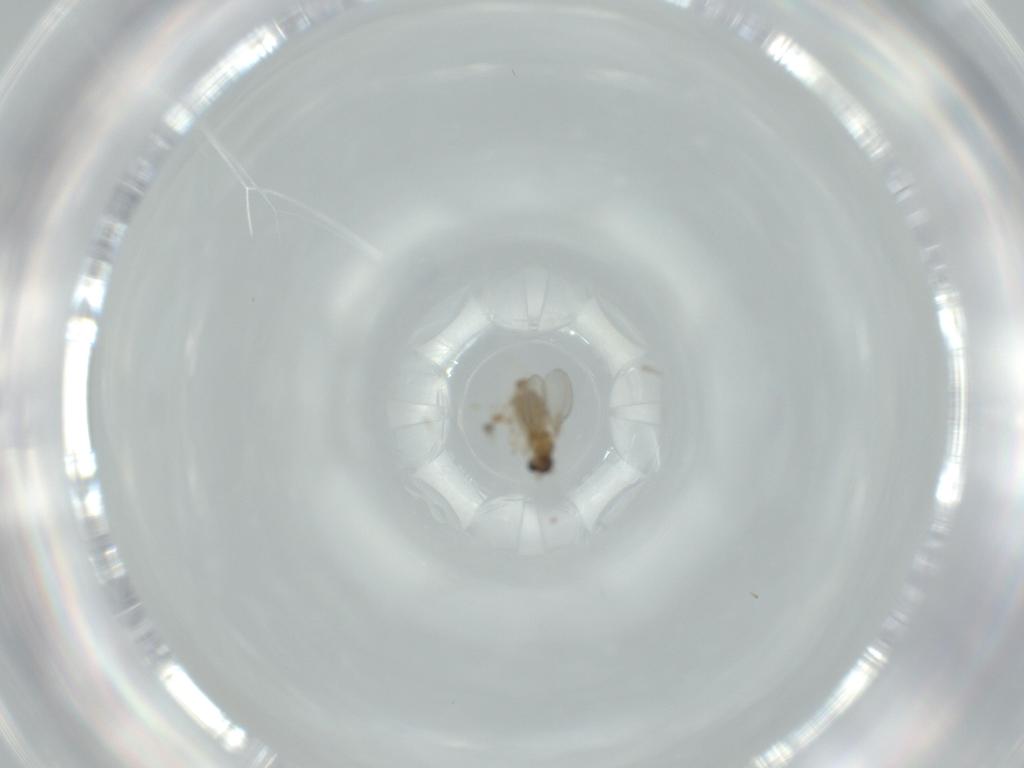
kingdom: Animalia
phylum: Arthropoda
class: Insecta
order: Diptera
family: Cecidomyiidae
